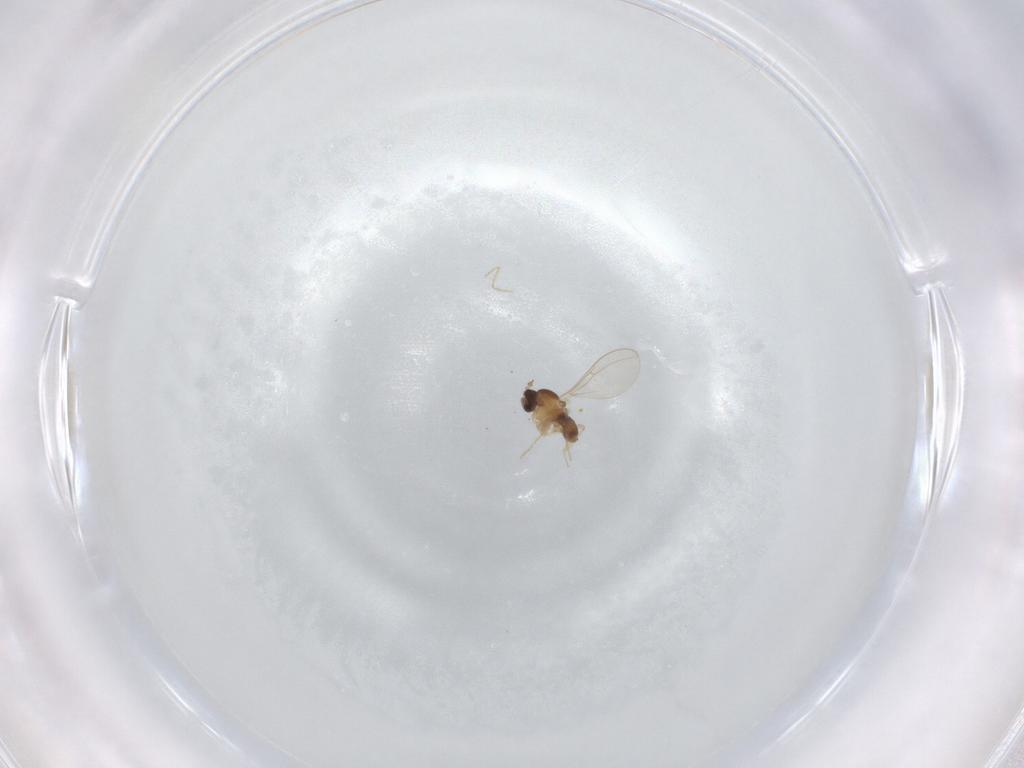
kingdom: Animalia
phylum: Arthropoda
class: Insecta
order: Diptera
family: Cecidomyiidae
